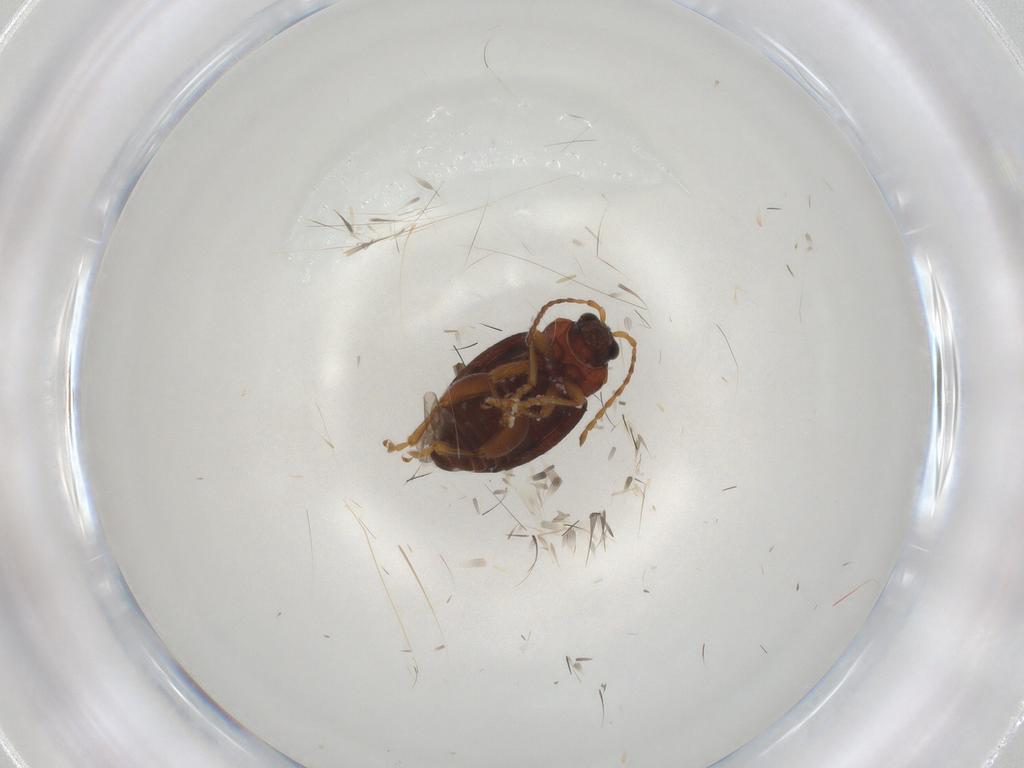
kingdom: Animalia
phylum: Arthropoda
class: Insecta
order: Coleoptera
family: Chrysomelidae
